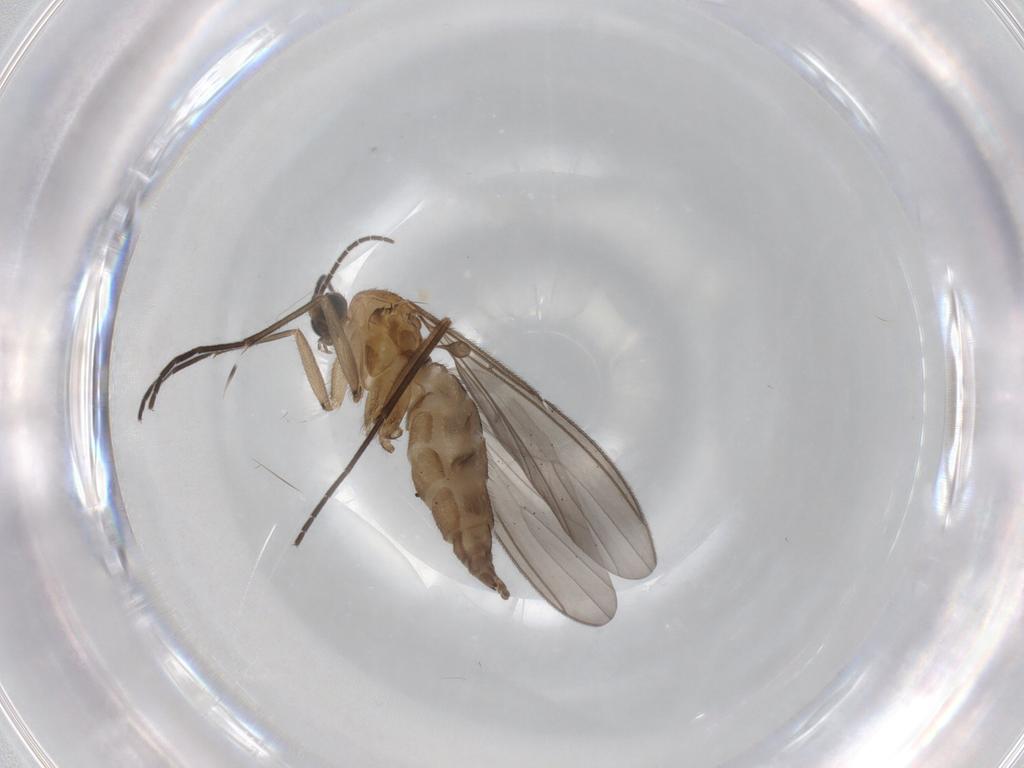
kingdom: Animalia
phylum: Arthropoda
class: Insecta
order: Diptera
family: Sciaridae
